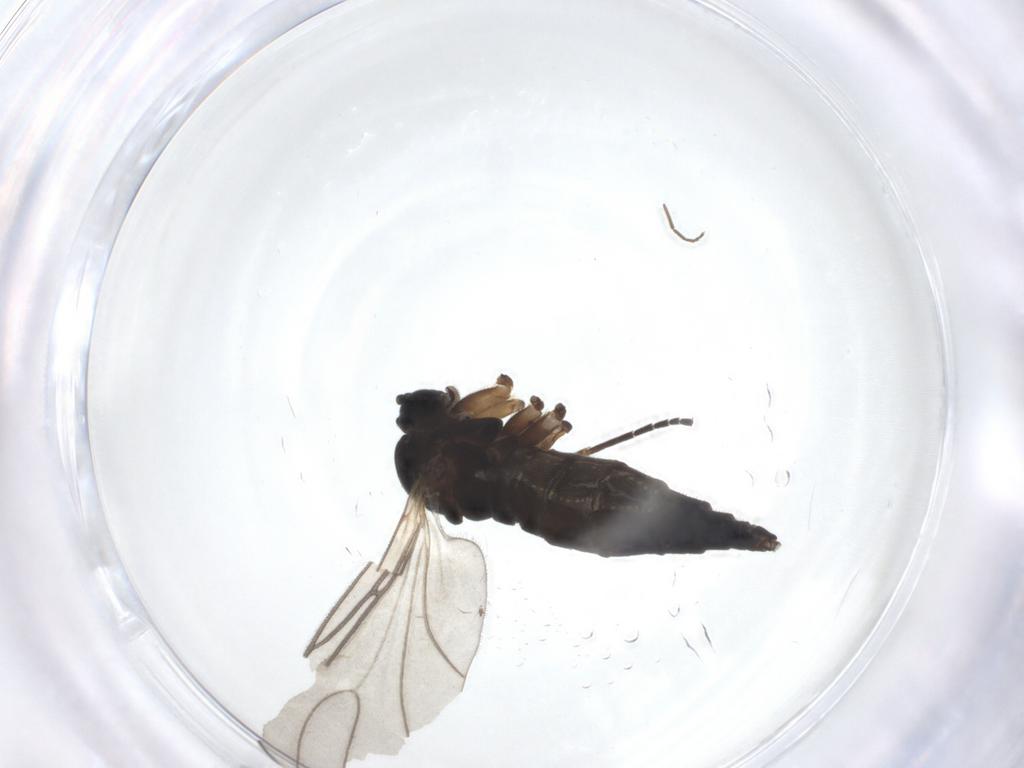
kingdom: Animalia
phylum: Arthropoda
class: Insecta
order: Diptera
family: Sciaridae
